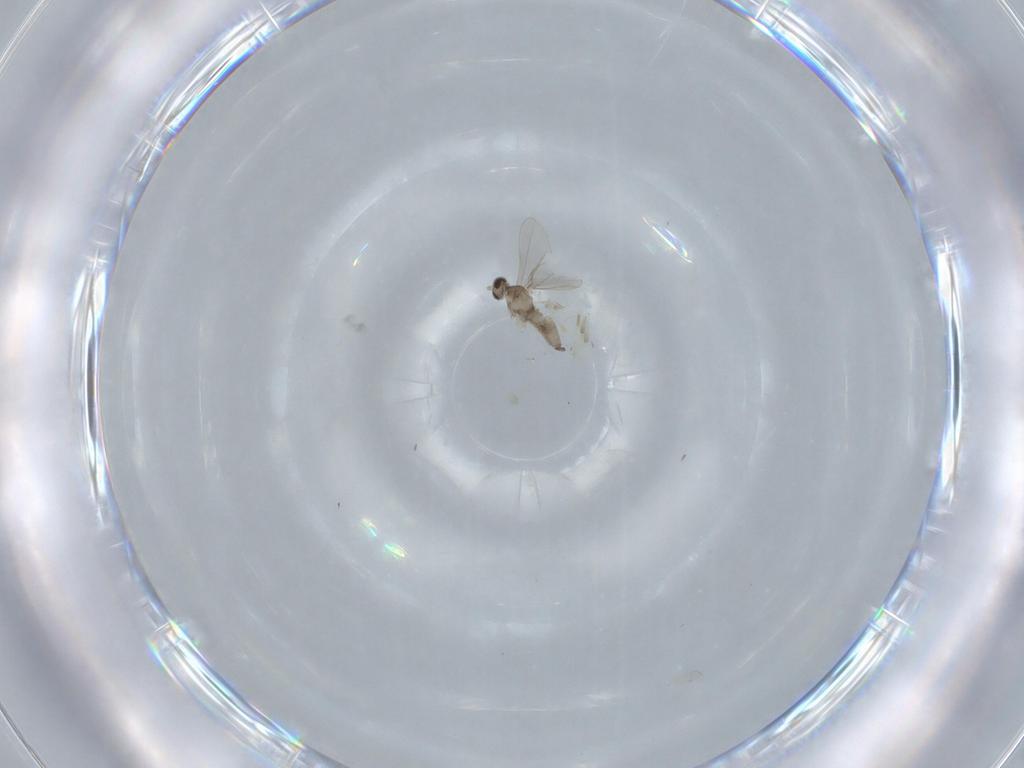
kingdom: Animalia
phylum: Arthropoda
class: Insecta
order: Diptera
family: Cecidomyiidae
